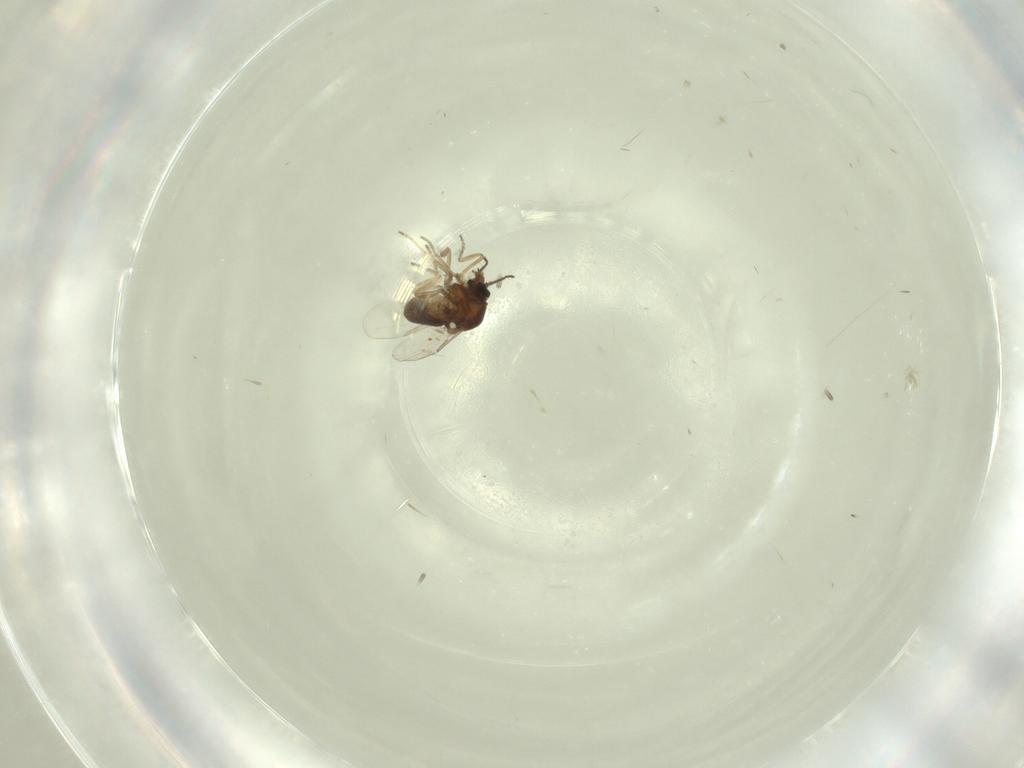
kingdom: Animalia
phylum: Arthropoda
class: Insecta
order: Diptera
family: Ceratopogonidae
